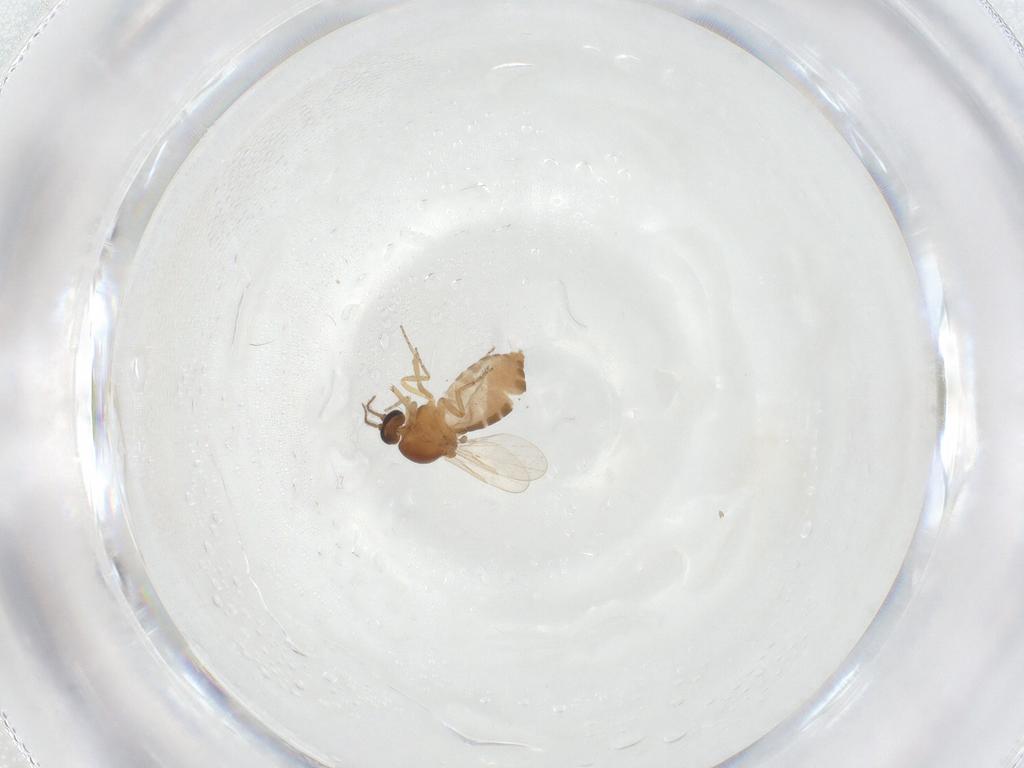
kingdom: Animalia
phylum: Arthropoda
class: Insecta
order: Diptera
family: Ceratopogonidae
